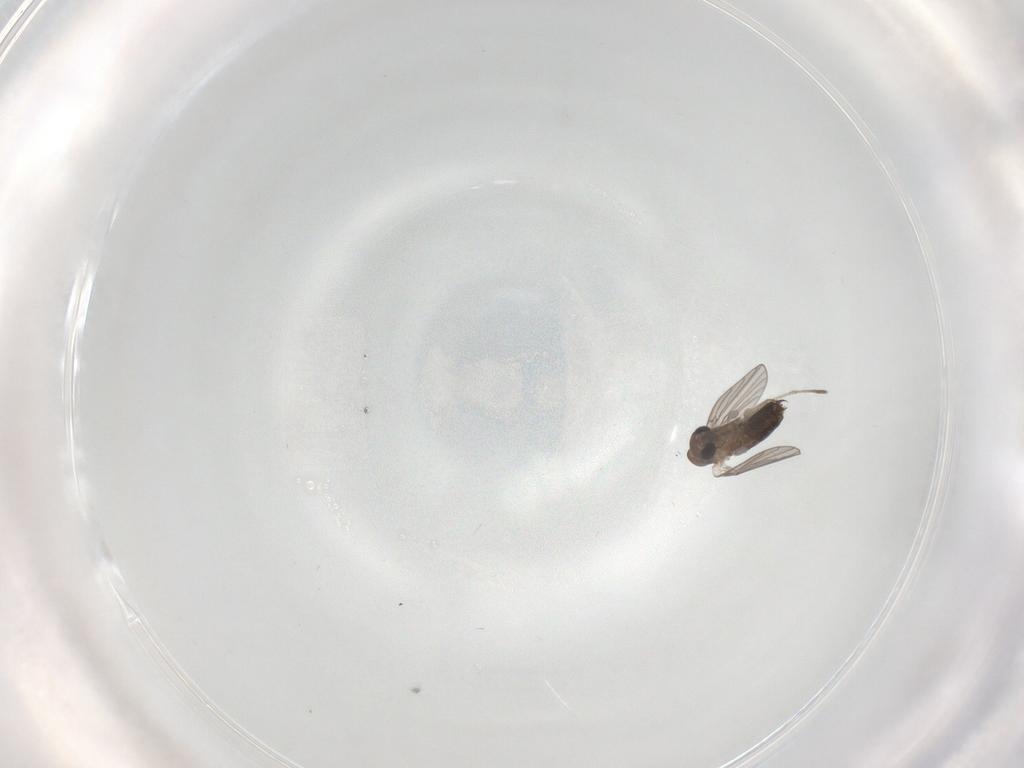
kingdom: Animalia
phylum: Arthropoda
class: Insecta
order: Diptera
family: Psychodidae
